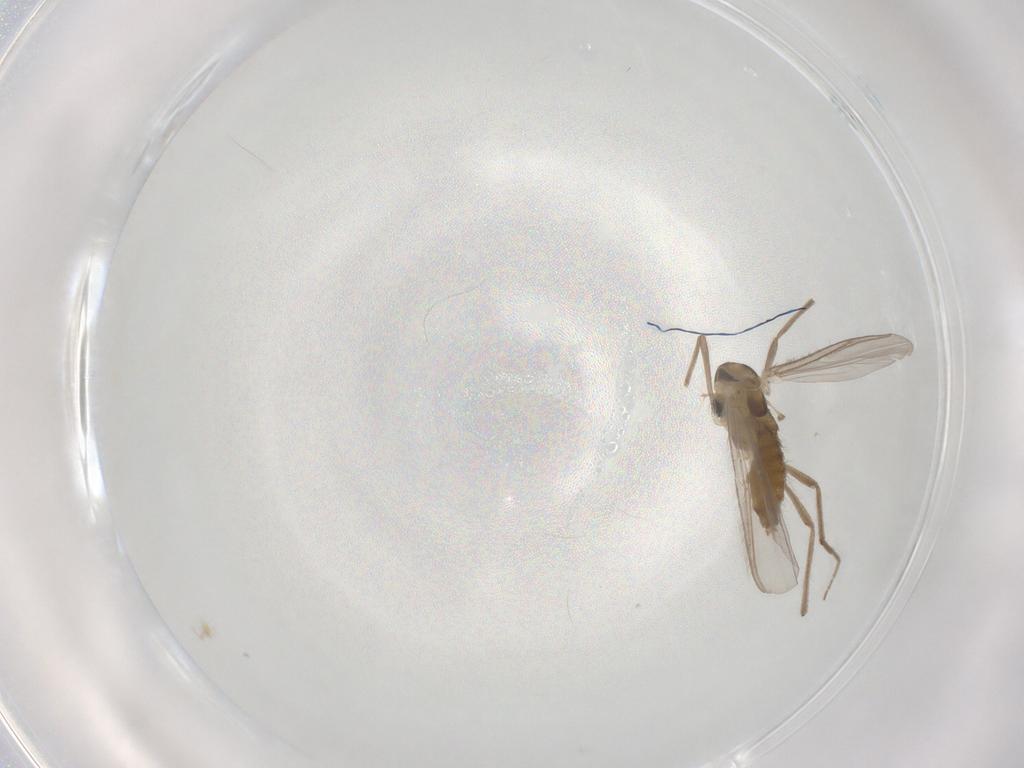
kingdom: Animalia
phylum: Arthropoda
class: Insecta
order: Diptera
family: Chironomidae
